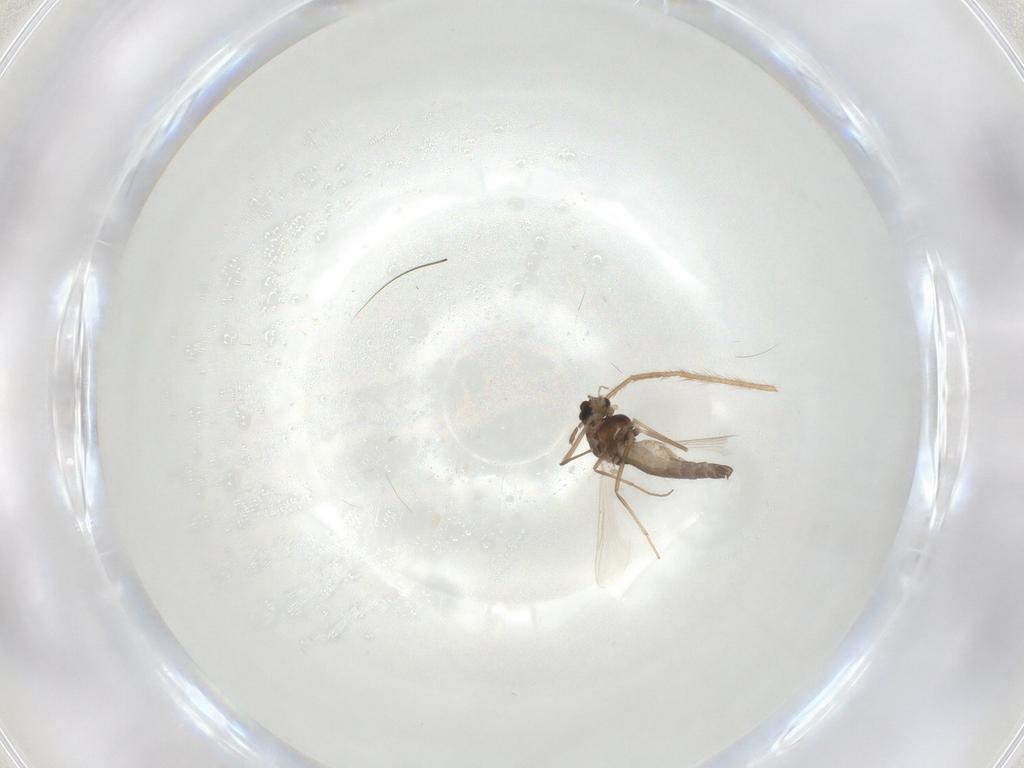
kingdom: Animalia
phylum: Arthropoda
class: Insecta
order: Diptera
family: Chironomidae
